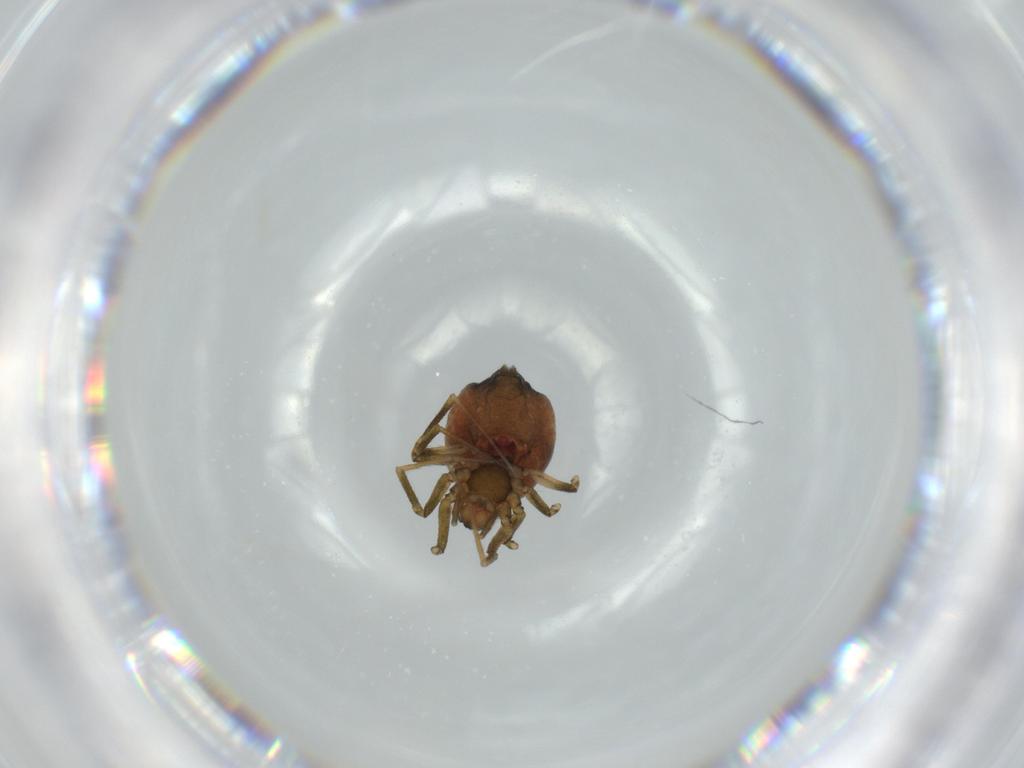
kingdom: Animalia
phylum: Arthropoda
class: Arachnida
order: Araneae
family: Linyphiidae
